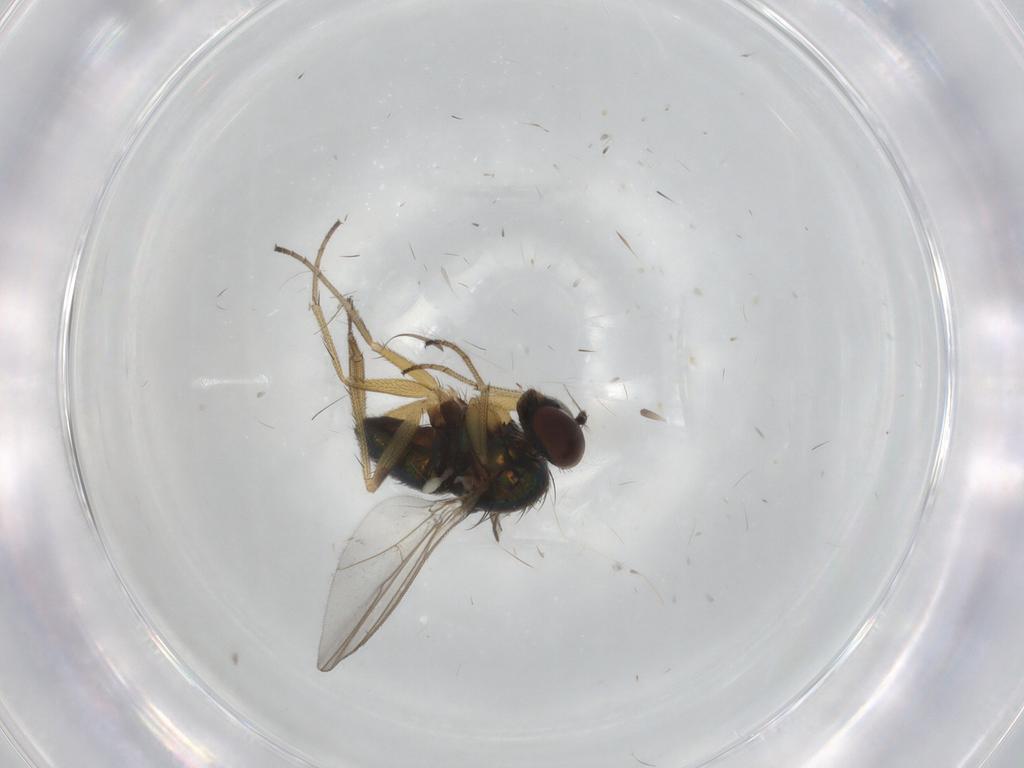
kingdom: Animalia
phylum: Arthropoda
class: Insecta
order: Diptera
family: Dolichopodidae
